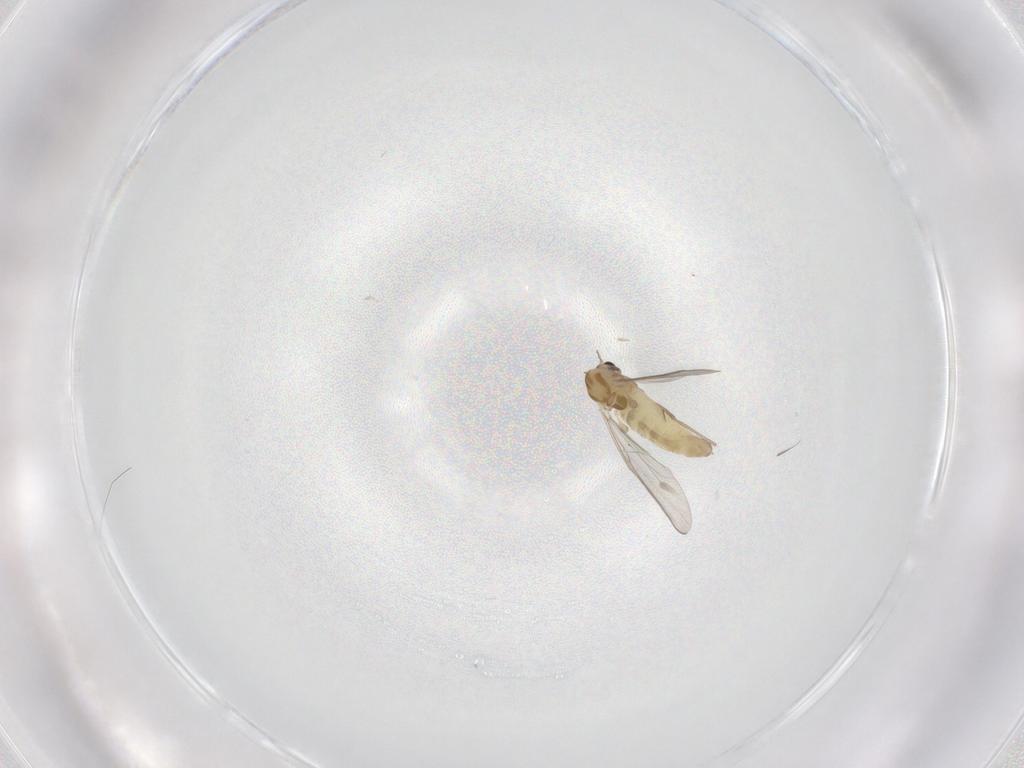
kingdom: Animalia
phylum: Arthropoda
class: Insecta
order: Diptera
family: Chironomidae
